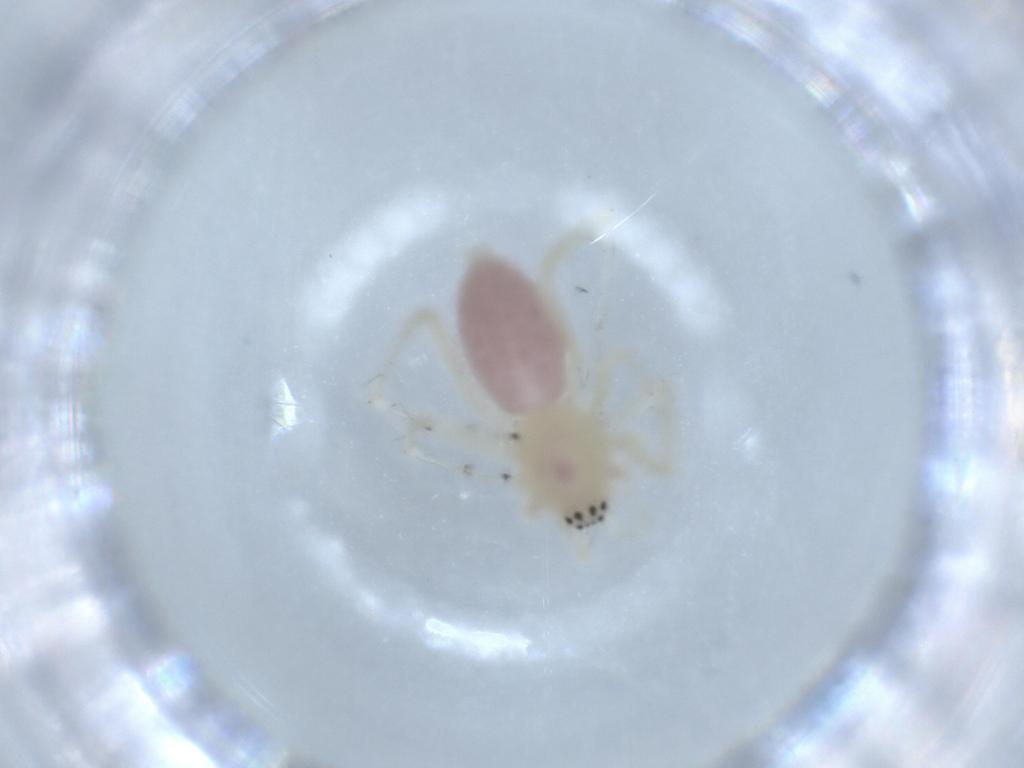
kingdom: Animalia
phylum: Arthropoda
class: Arachnida
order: Araneae
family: Anyphaenidae
